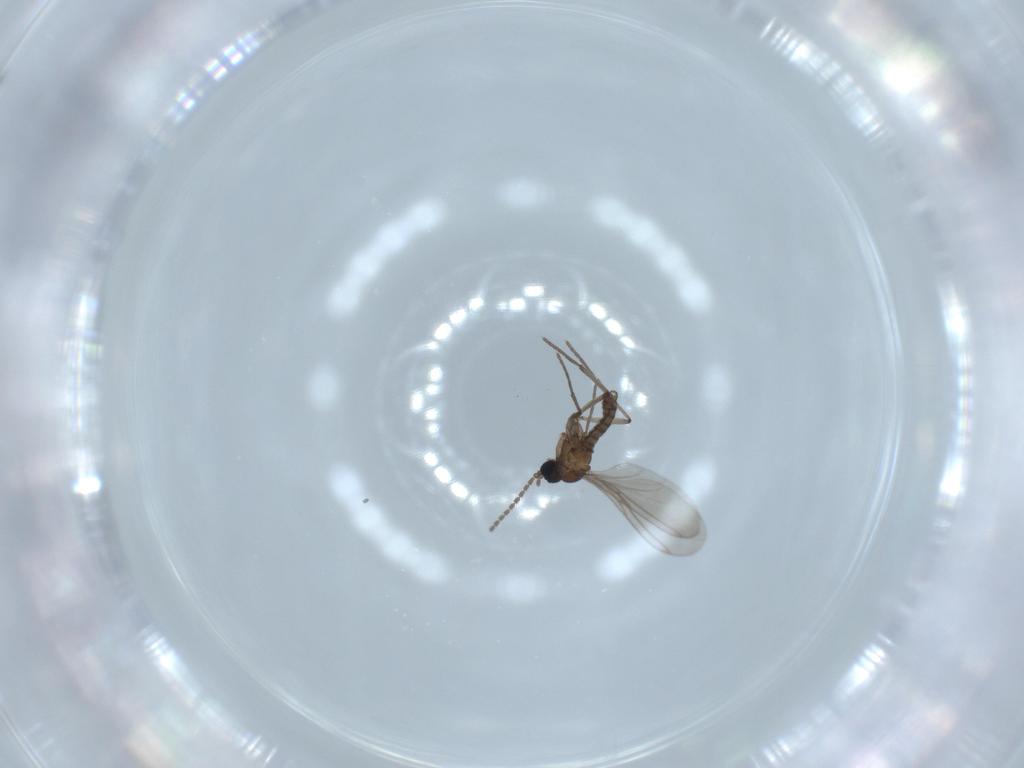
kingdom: Animalia
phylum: Arthropoda
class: Insecta
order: Diptera
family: Sciaridae
